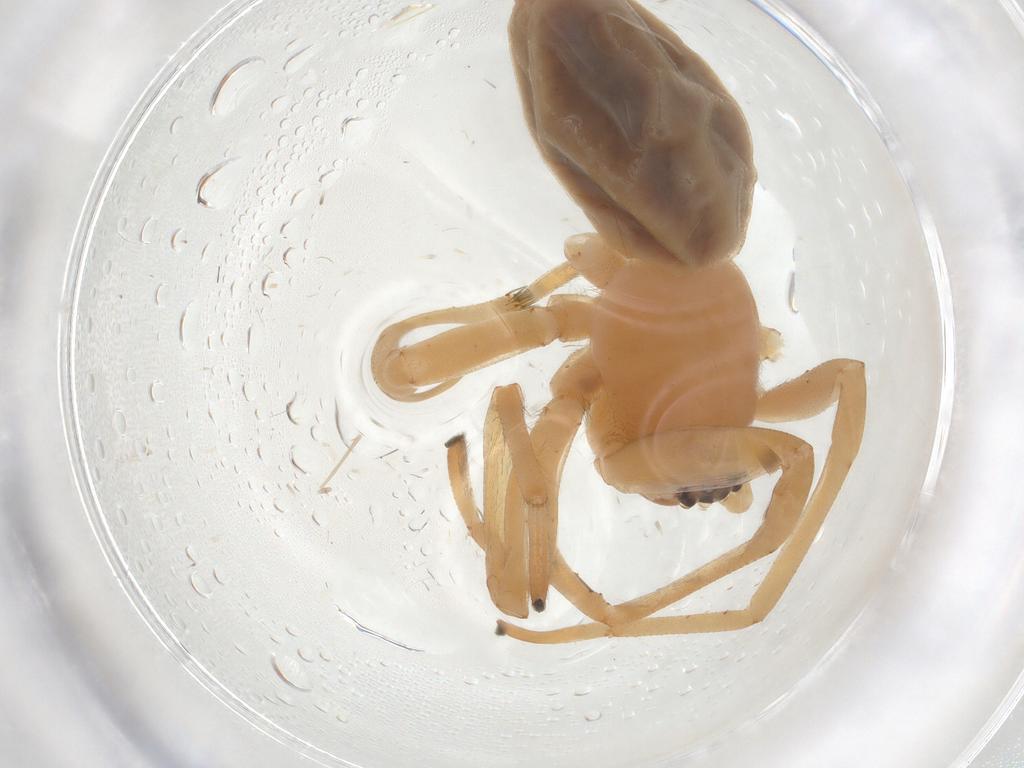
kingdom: Animalia
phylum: Arthropoda
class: Arachnida
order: Araneae
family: Cheiracanthiidae
